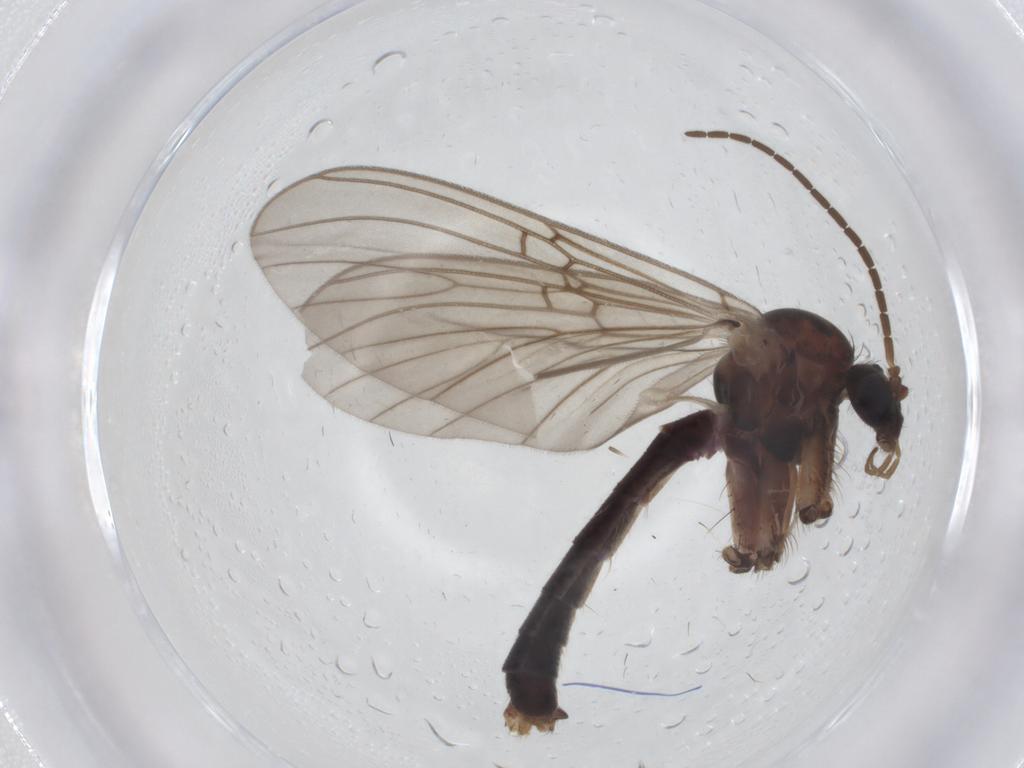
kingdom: Animalia
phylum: Arthropoda
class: Insecta
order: Diptera
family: Mycetophilidae
